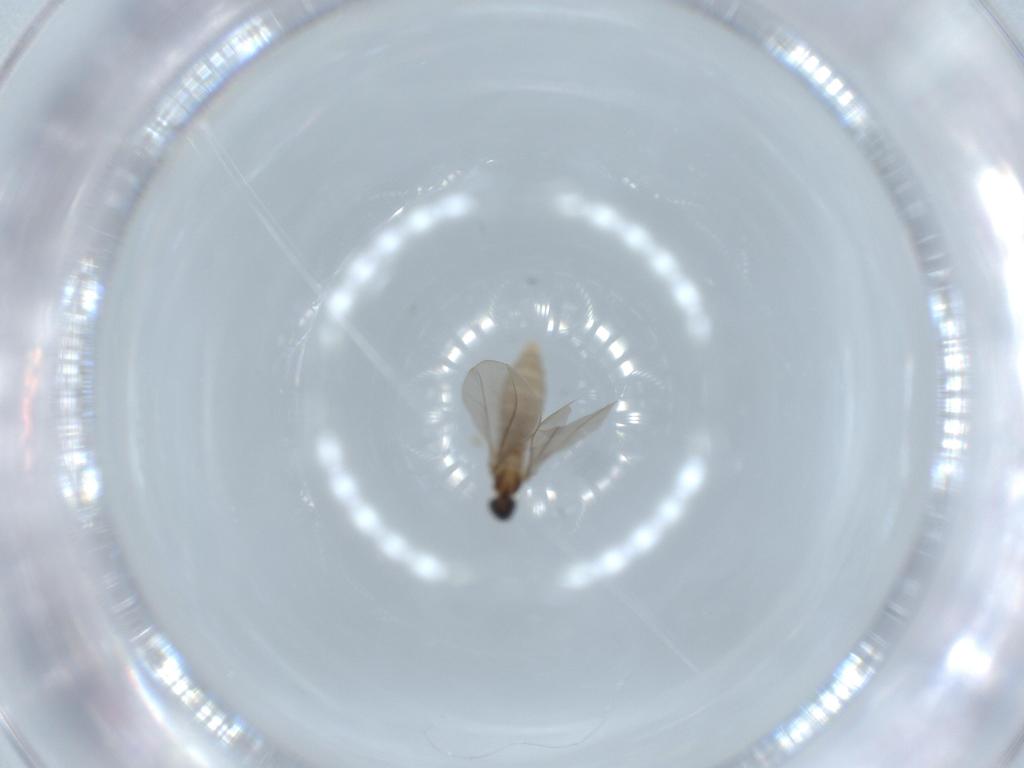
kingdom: Animalia
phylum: Arthropoda
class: Insecta
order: Diptera
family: Cecidomyiidae
